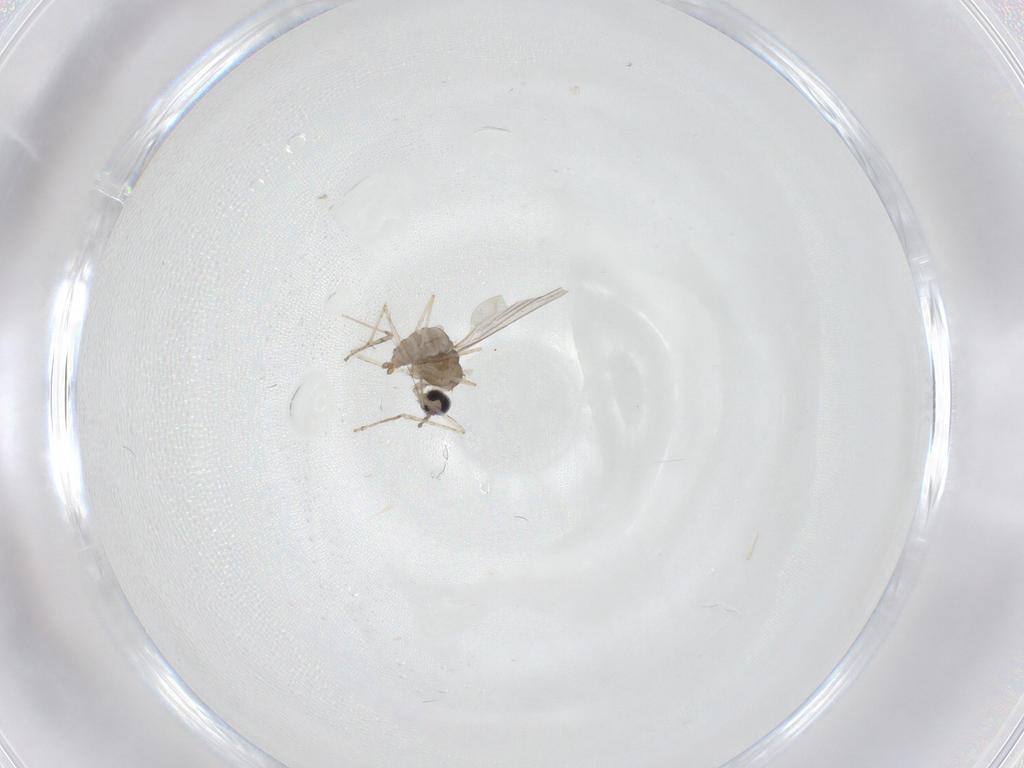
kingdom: Animalia
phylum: Arthropoda
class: Insecta
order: Diptera
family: Cecidomyiidae
